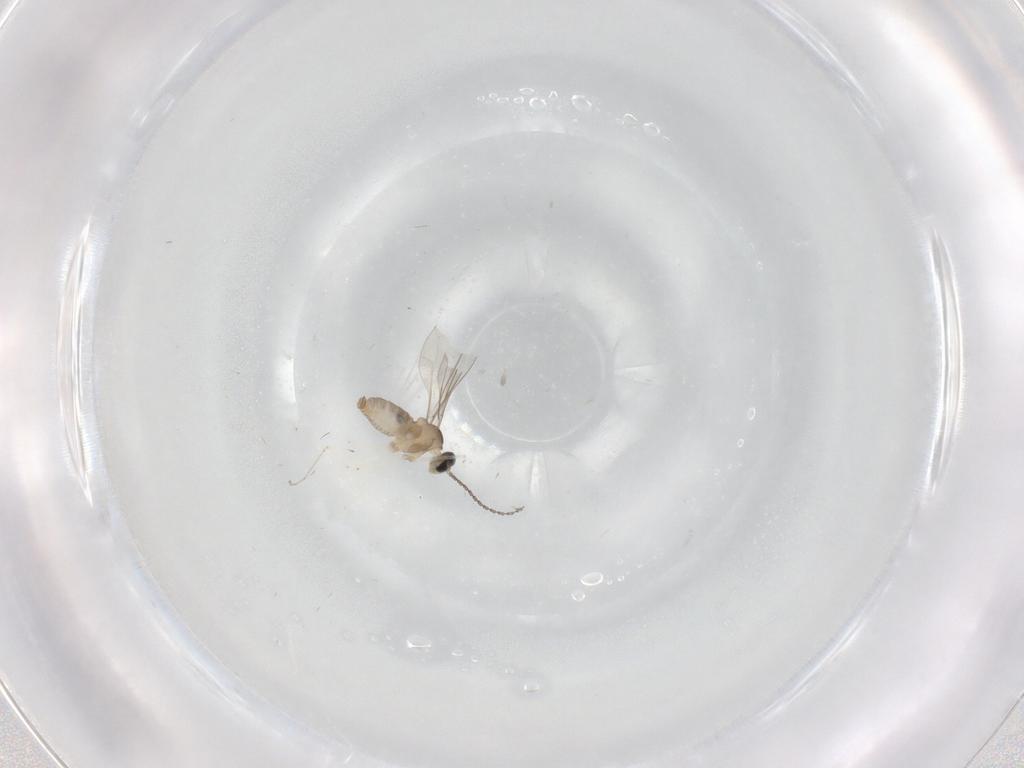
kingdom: Animalia
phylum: Arthropoda
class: Insecta
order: Diptera
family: Cecidomyiidae
